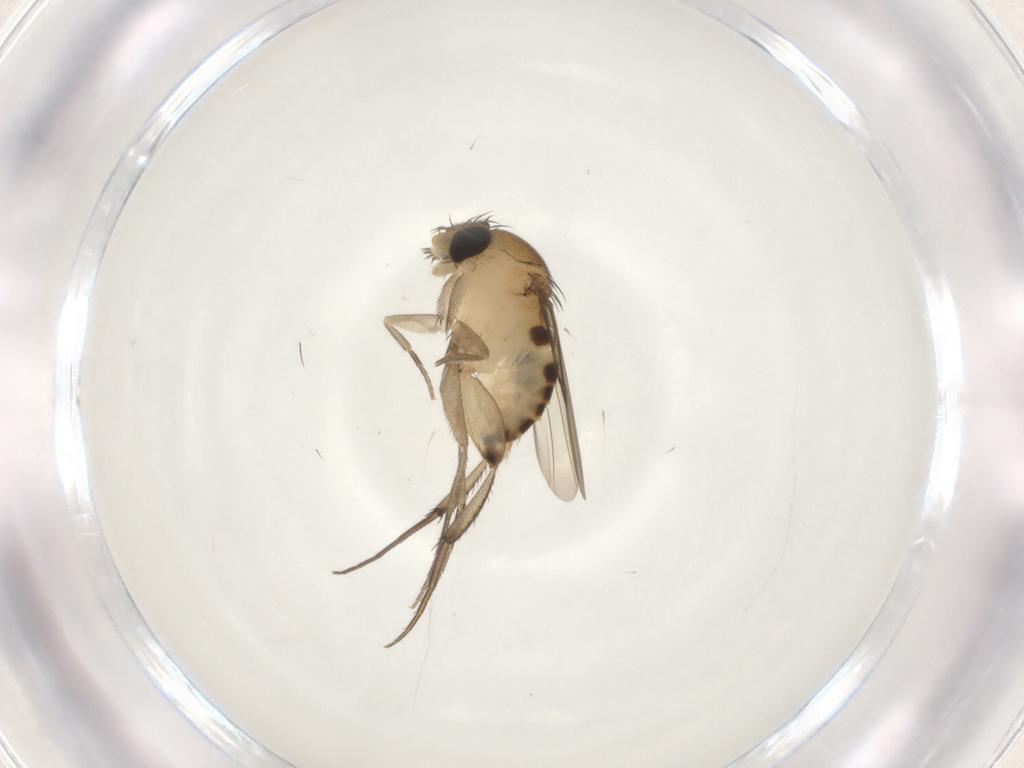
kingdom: Animalia
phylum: Arthropoda
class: Insecta
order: Diptera
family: Phoridae
